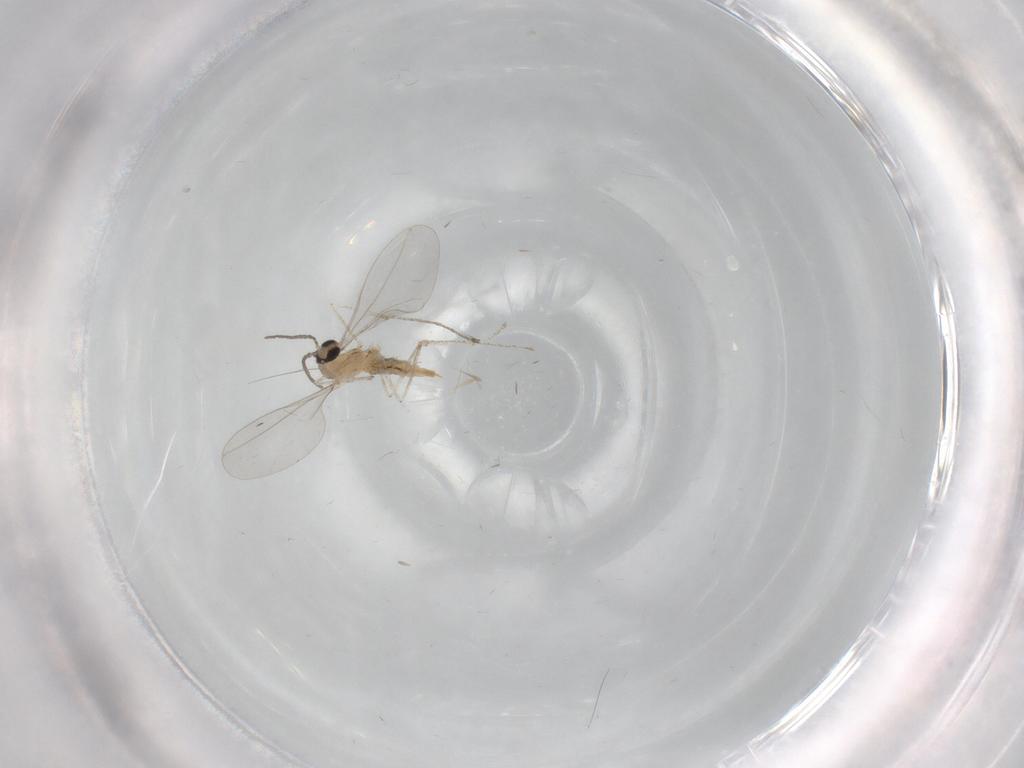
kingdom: Animalia
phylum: Arthropoda
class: Insecta
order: Diptera
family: Cecidomyiidae
